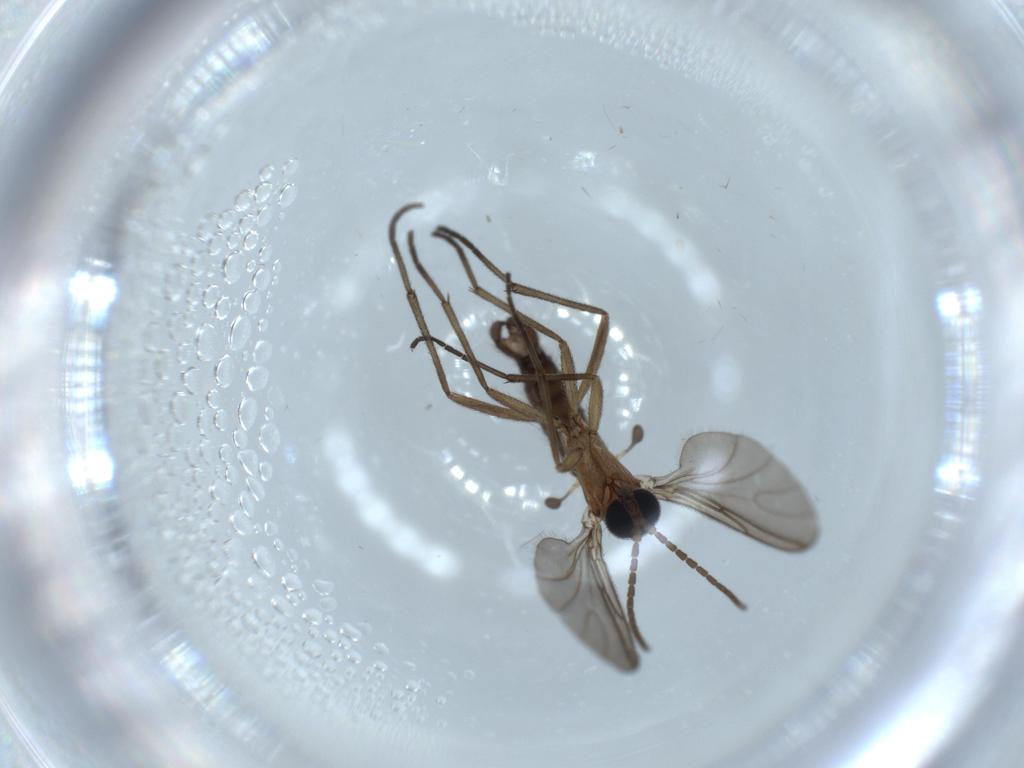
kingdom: Animalia
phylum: Arthropoda
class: Insecta
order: Diptera
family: Sciaridae
